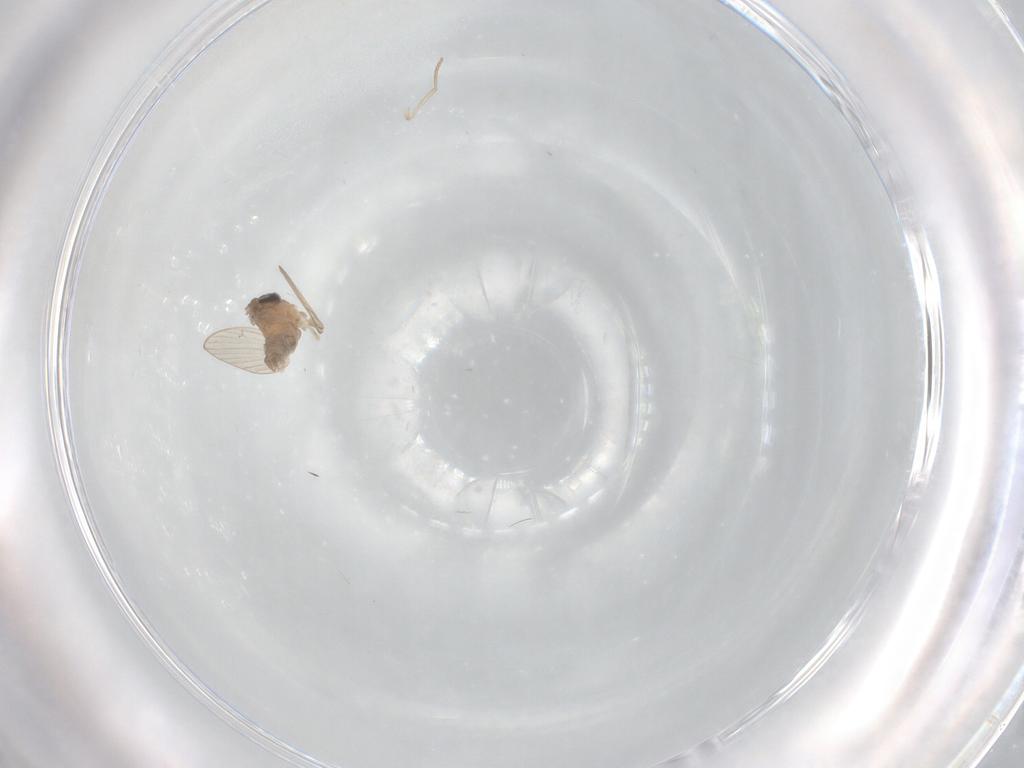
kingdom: Animalia
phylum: Arthropoda
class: Insecta
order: Diptera
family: Psychodidae
